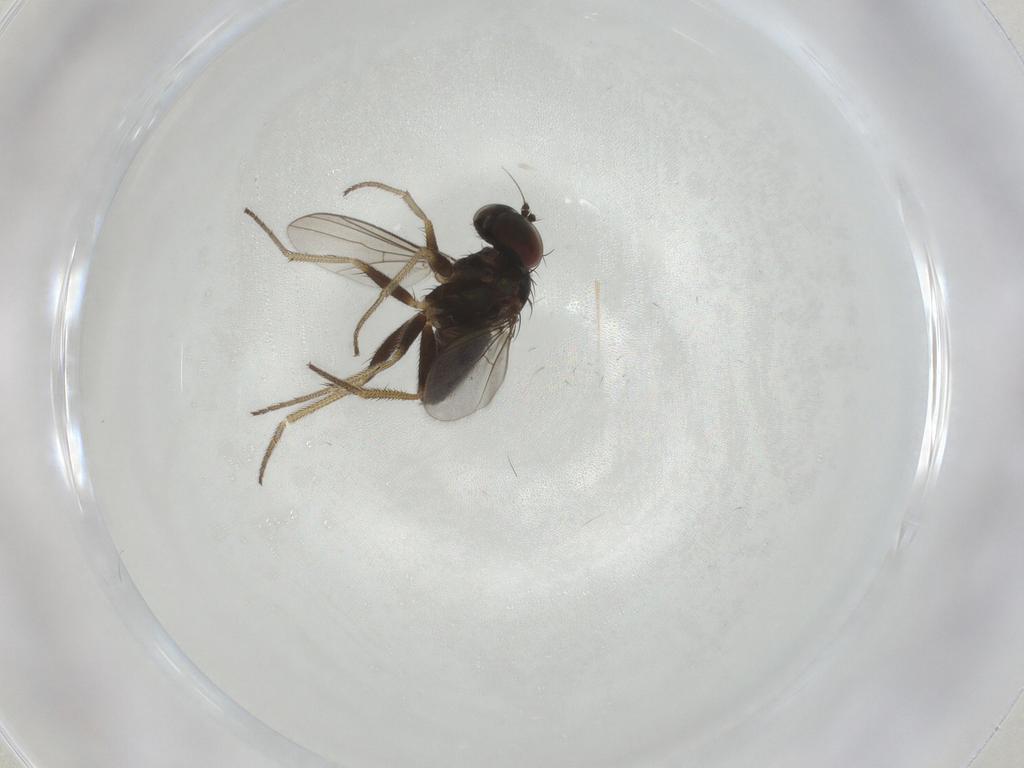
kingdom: Animalia
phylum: Arthropoda
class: Insecta
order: Diptera
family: Dolichopodidae
